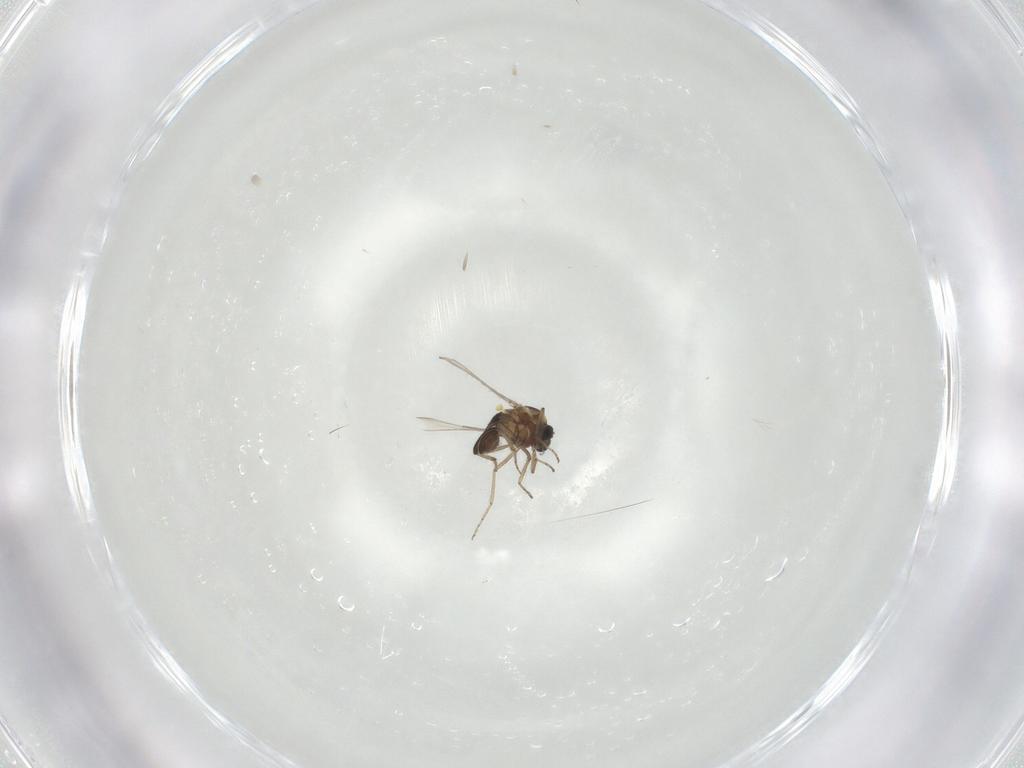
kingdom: Animalia
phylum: Arthropoda
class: Insecta
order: Diptera
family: Ceratopogonidae
